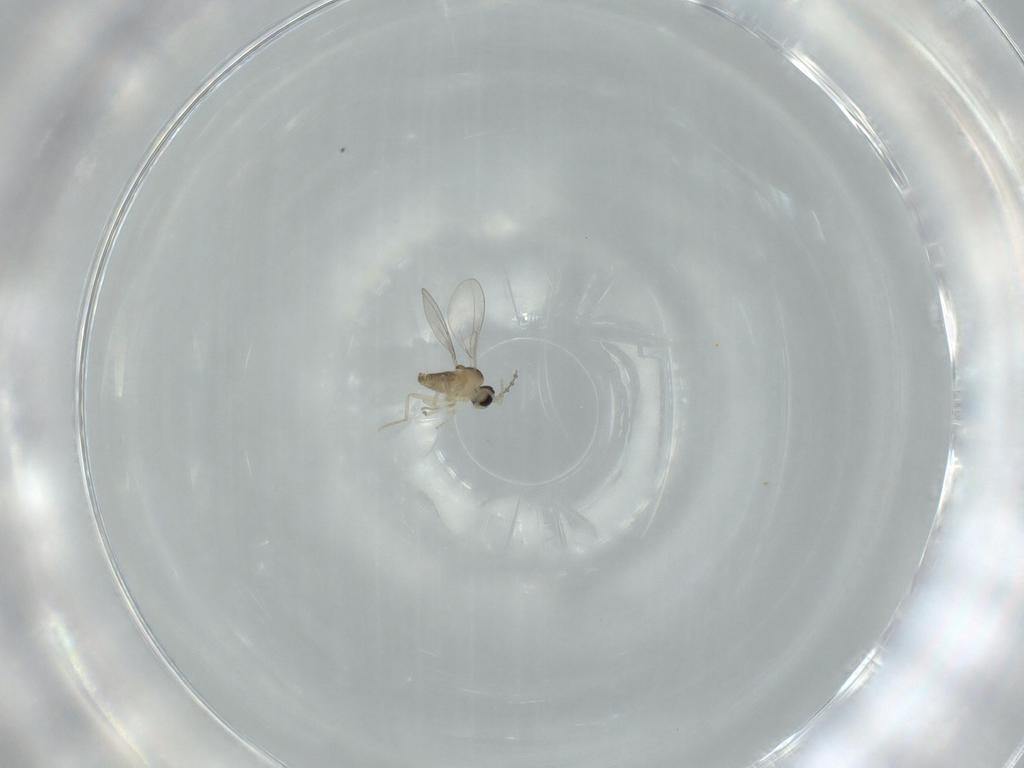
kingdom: Animalia
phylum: Arthropoda
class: Insecta
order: Diptera
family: Cecidomyiidae
